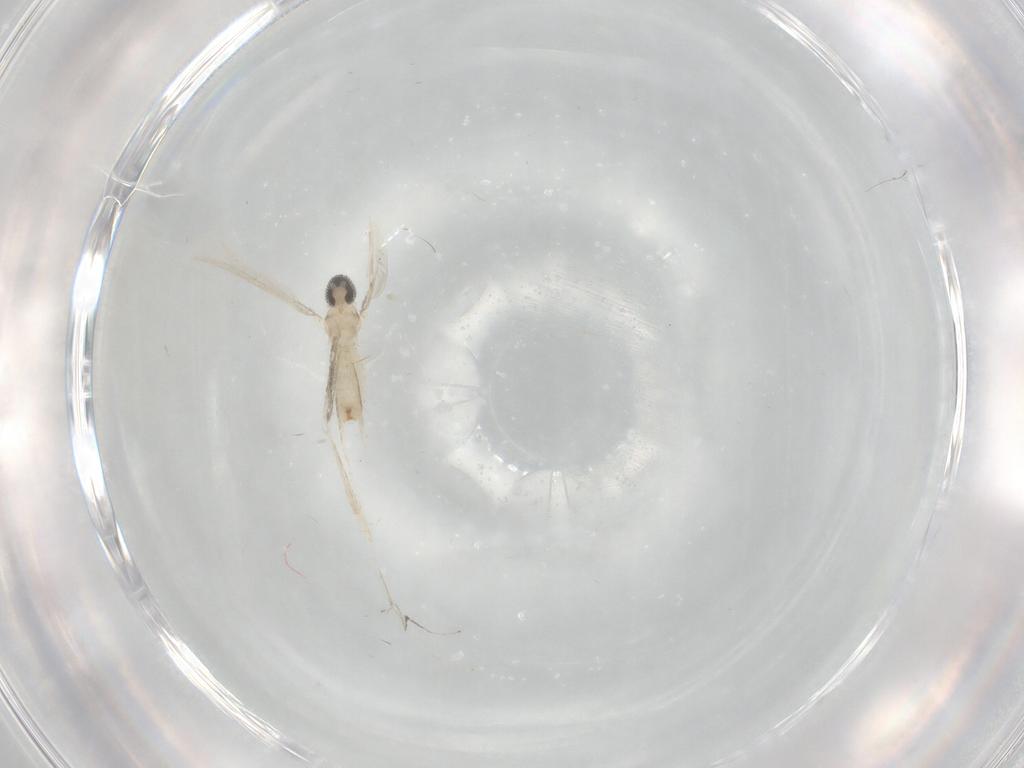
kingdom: Animalia
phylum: Arthropoda
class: Insecta
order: Diptera
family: Cecidomyiidae
